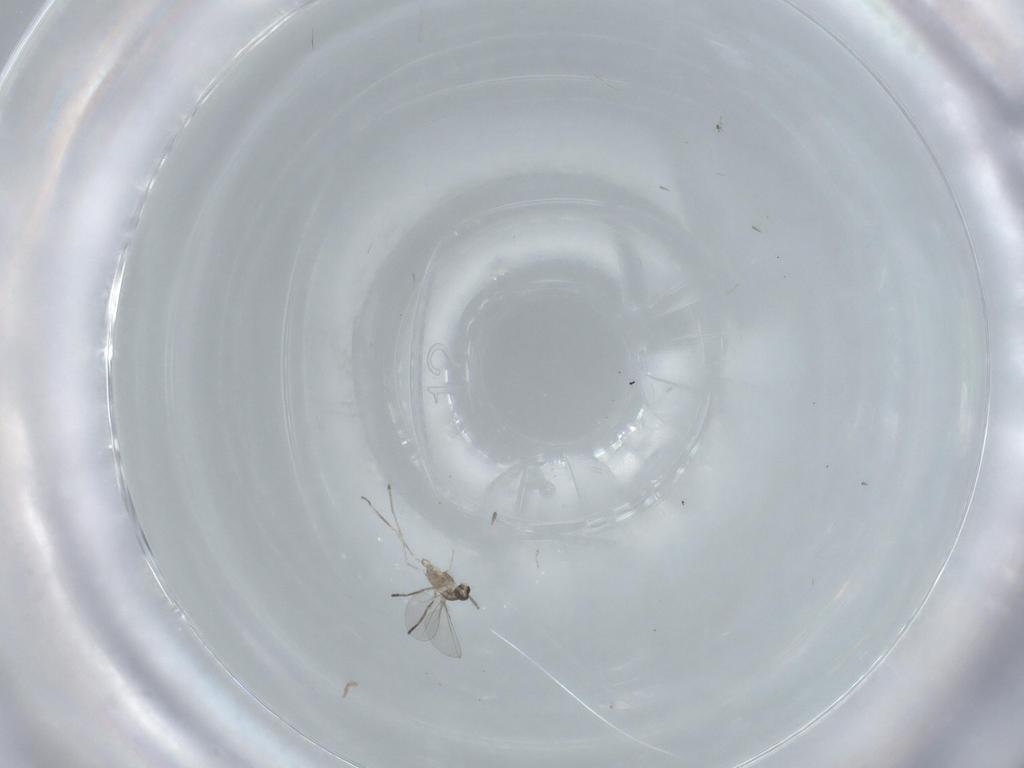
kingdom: Animalia
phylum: Arthropoda
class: Insecta
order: Diptera
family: Cecidomyiidae
